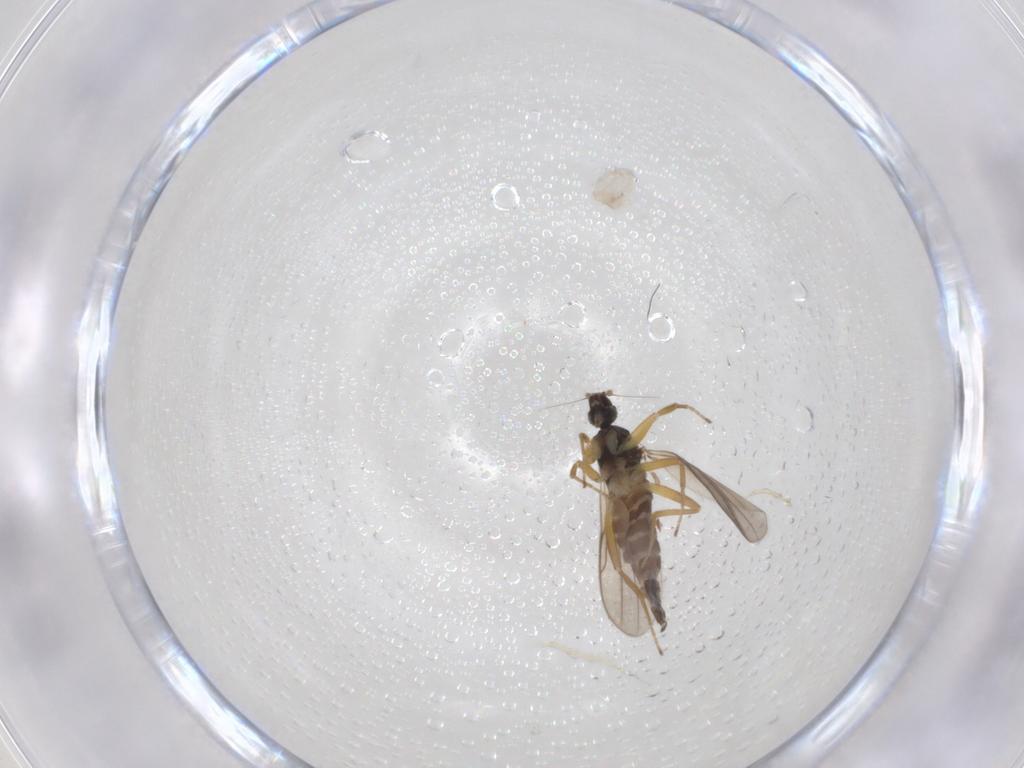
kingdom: Animalia
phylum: Arthropoda
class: Insecta
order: Diptera
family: Hybotidae
